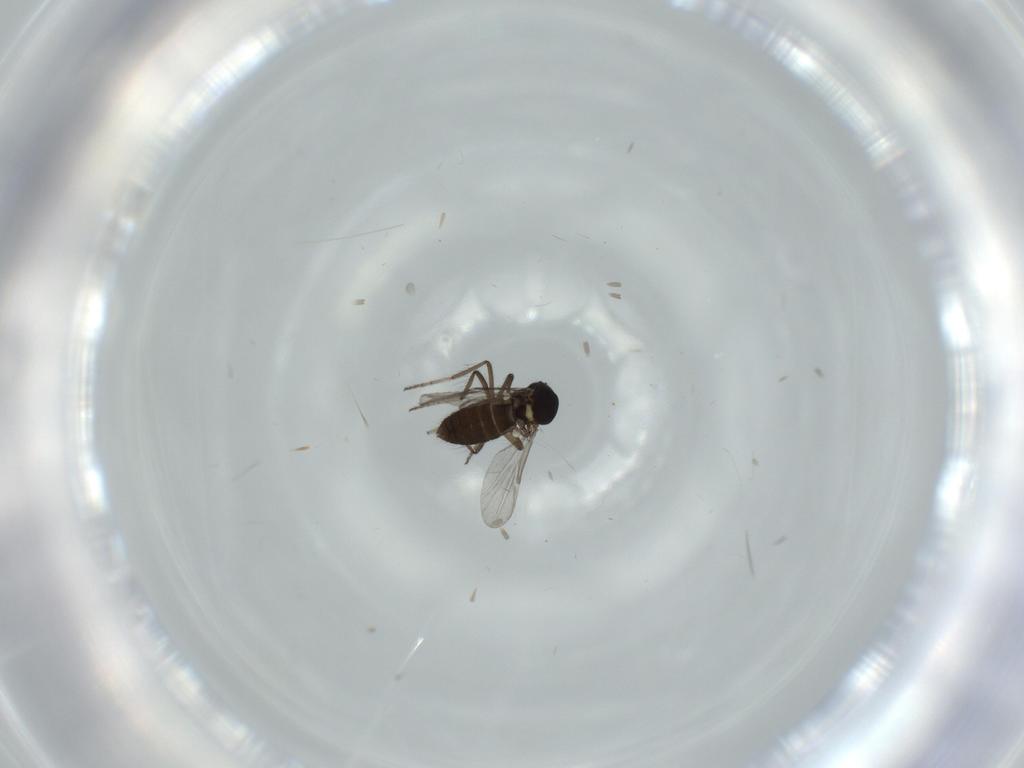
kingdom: Animalia
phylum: Arthropoda
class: Insecta
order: Diptera
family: Ceratopogonidae
